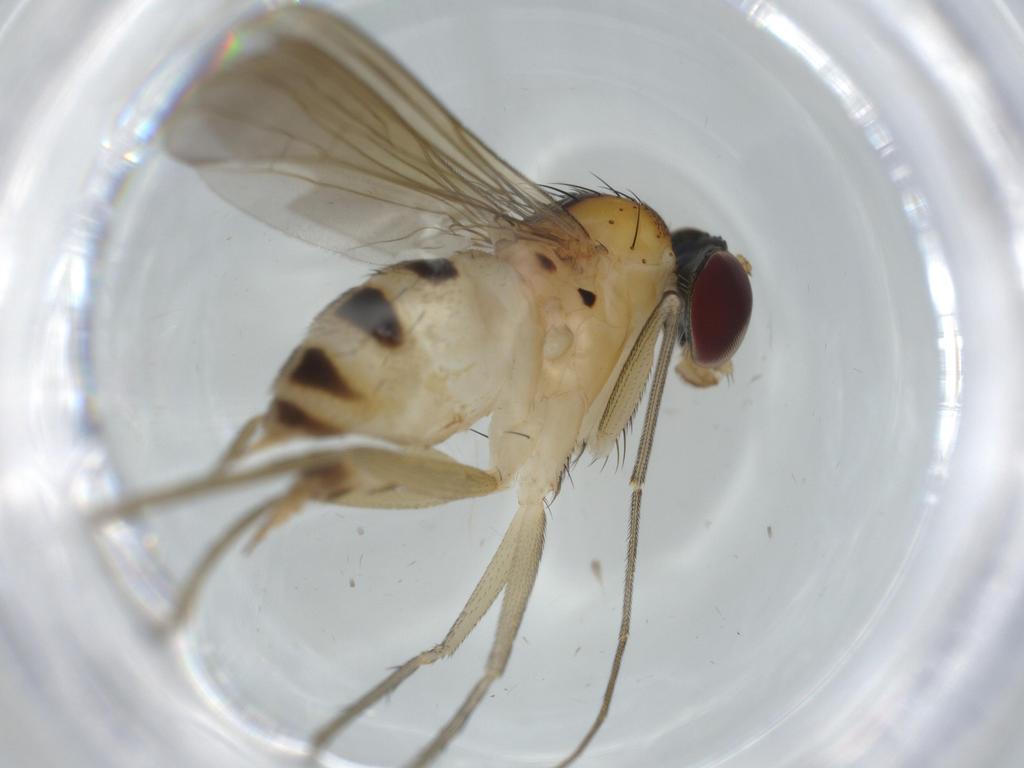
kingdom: Animalia
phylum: Arthropoda
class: Insecta
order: Diptera
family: Dolichopodidae
